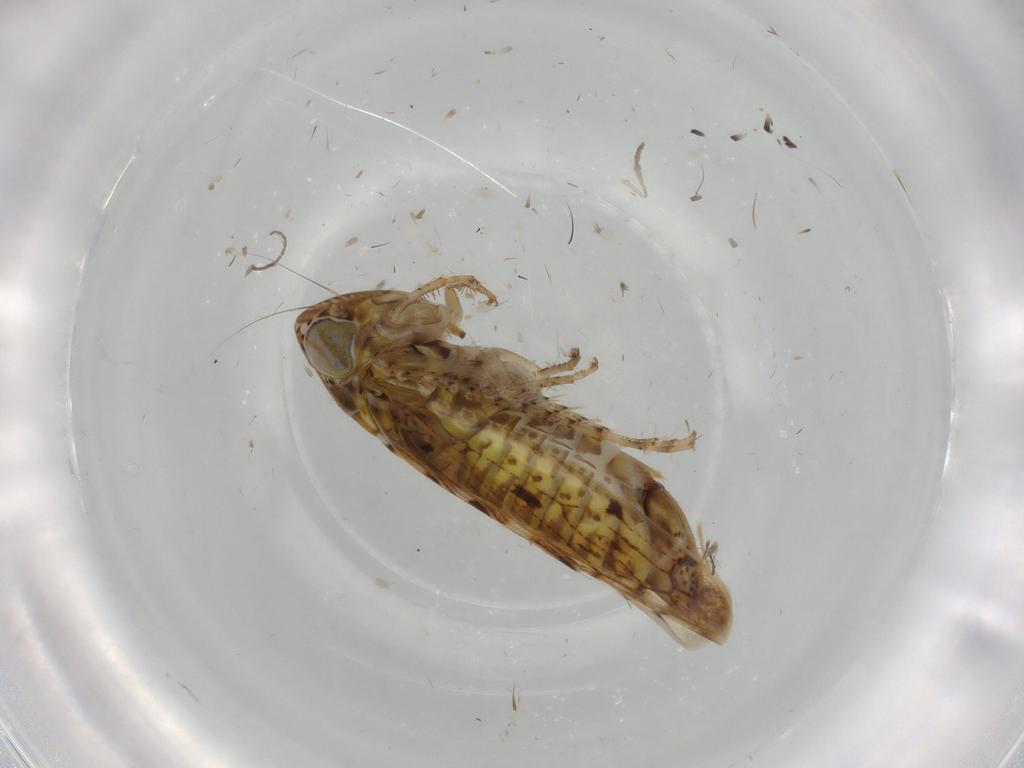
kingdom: Animalia
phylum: Arthropoda
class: Insecta
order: Hemiptera
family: Cicadellidae
